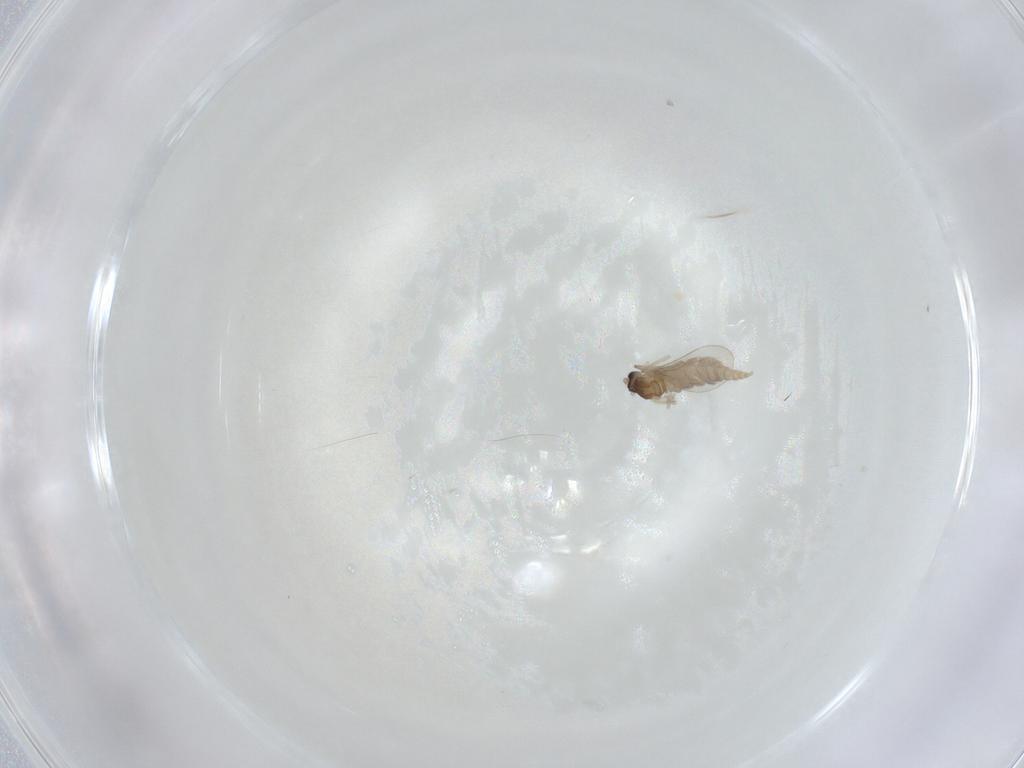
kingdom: Animalia
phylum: Arthropoda
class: Insecta
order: Diptera
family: Cecidomyiidae
